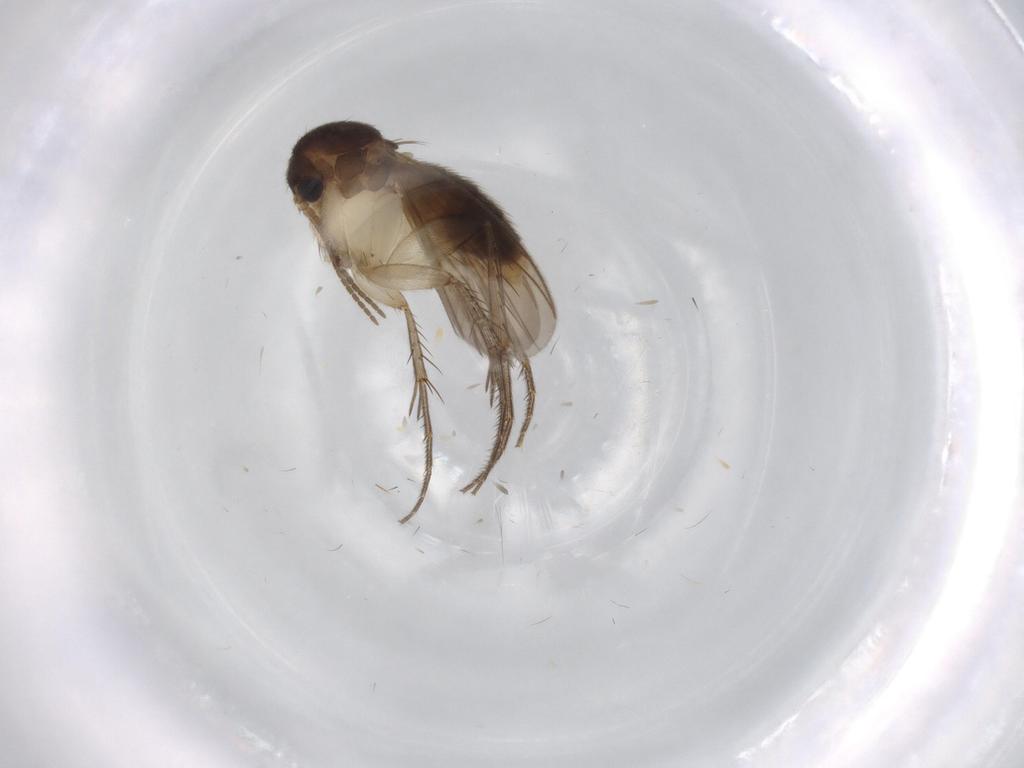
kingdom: Animalia
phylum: Arthropoda
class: Insecta
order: Diptera
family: Mycetophilidae
